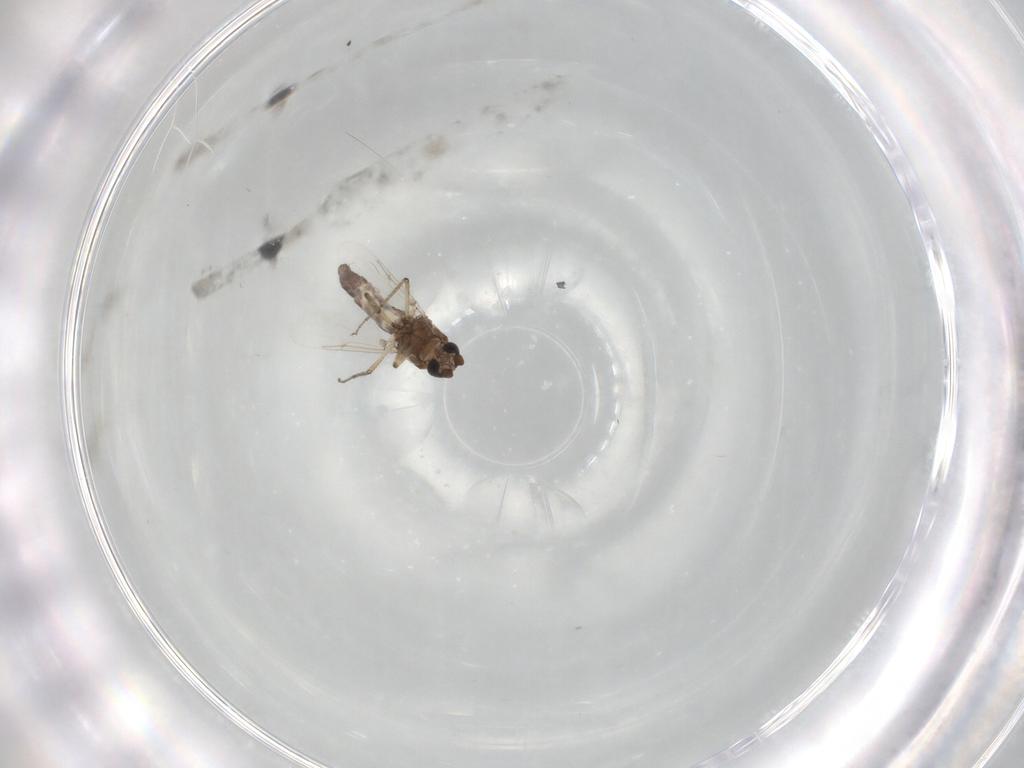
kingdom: Animalia
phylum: Arthropoda
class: Insecta
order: Diptera
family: Ceratopogonidae
